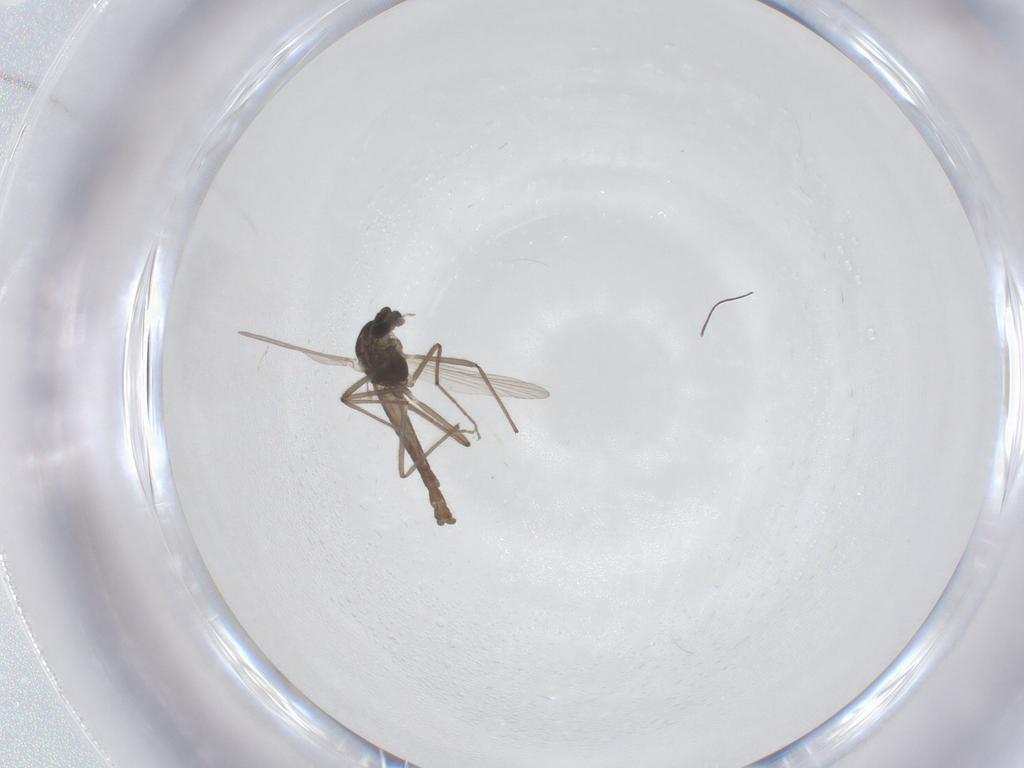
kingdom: Animalia
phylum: Arthropoda
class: Insecta
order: Diptera
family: Chironomidae
